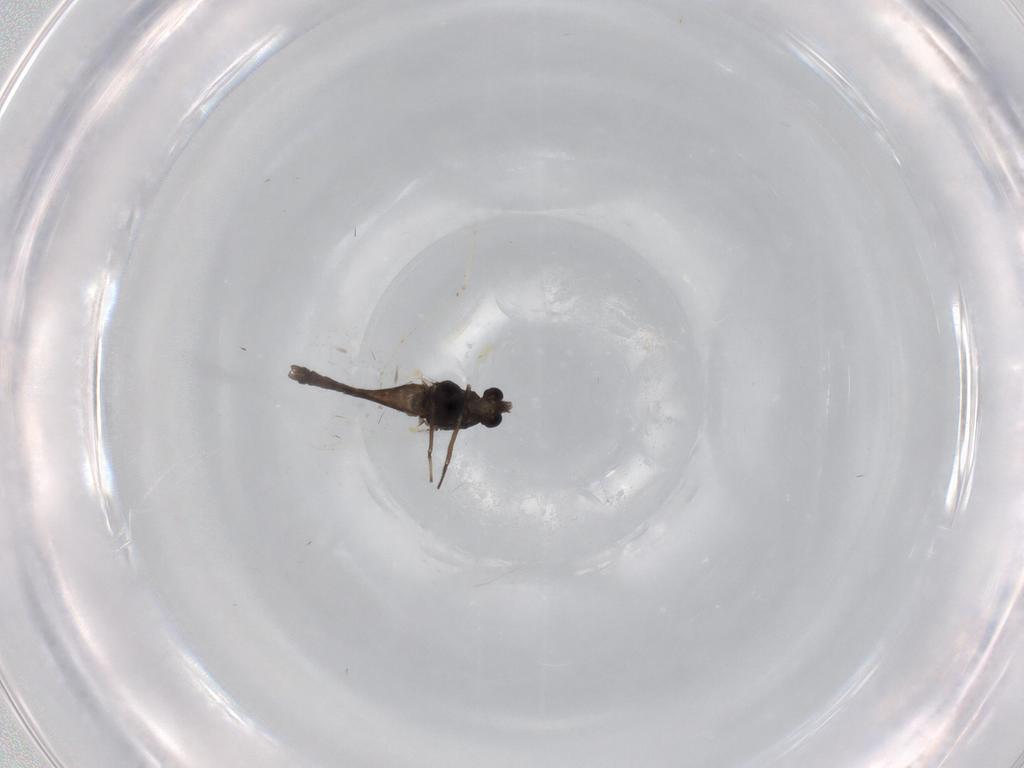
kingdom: Animalia
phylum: Arthropoda
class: Insecta
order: Diptera
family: Chironomidae
